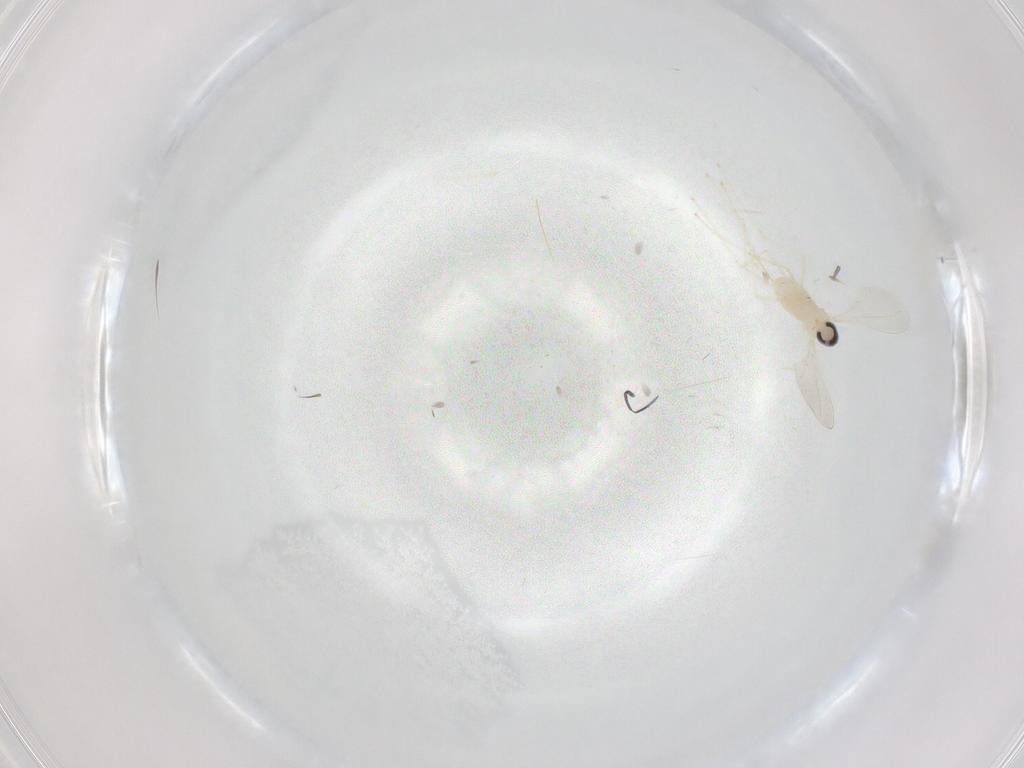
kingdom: Animalia
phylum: Arthropoda
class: Insecta
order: Diptera
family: Cecidomyiidae
